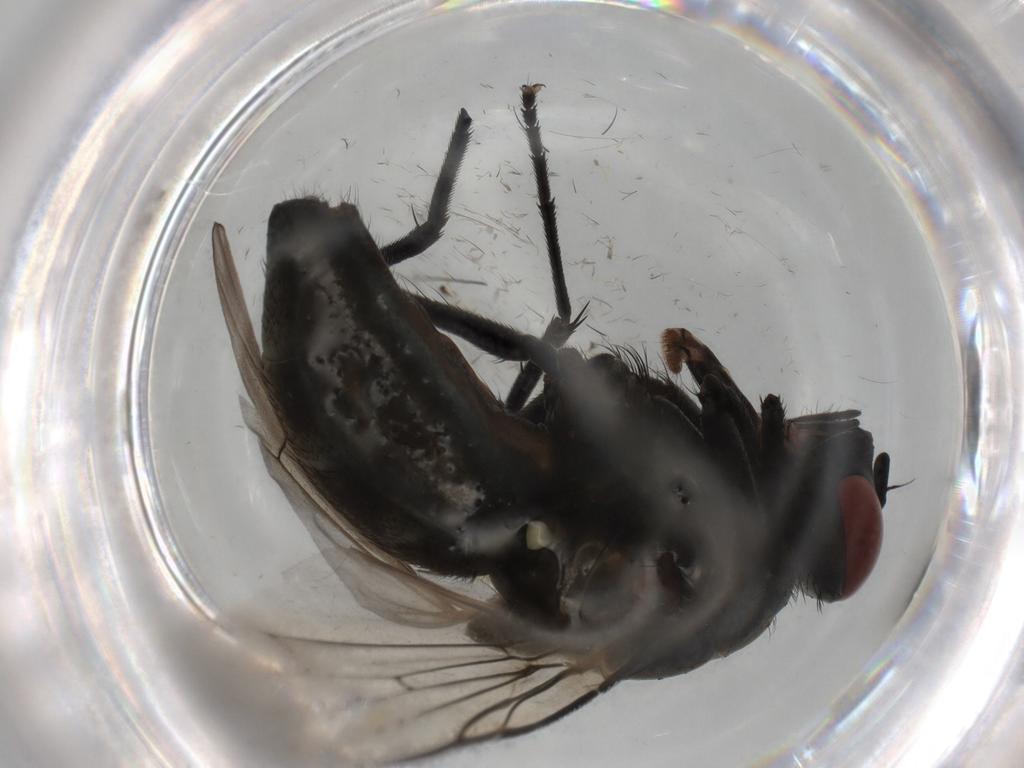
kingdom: Animalia
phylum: Arthropoda
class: Insecta
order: Diptera
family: Muscidae
